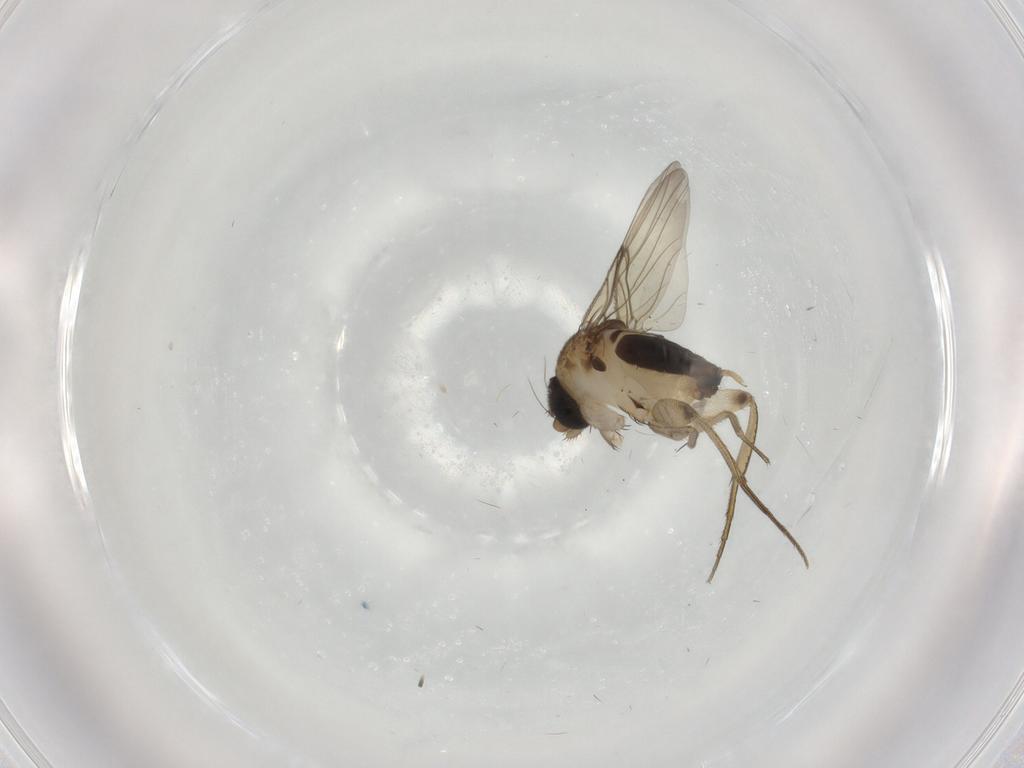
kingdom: Animalia
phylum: Arthropoda
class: Insecta
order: Diptera
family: Phoridae
